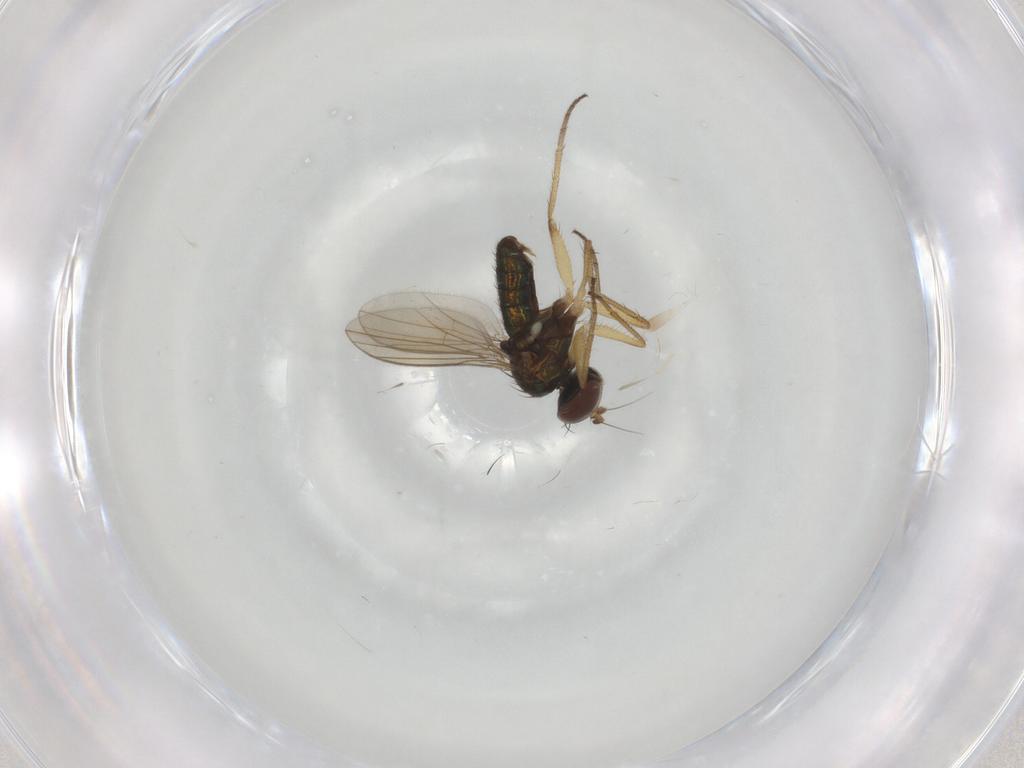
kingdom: Animalia
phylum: Arthropoda
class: Insecta
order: Diptera
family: Dolichopodidae
